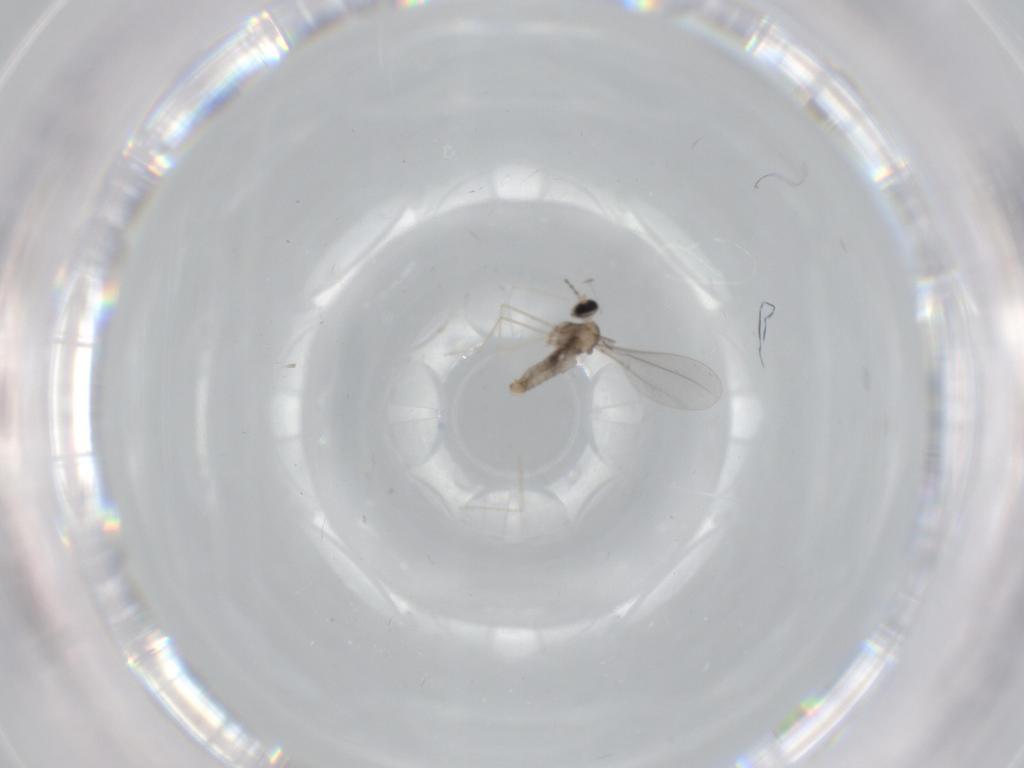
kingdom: Animalia
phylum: Arthropoda
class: Insecta
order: Diptera
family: Cecidomyiidae
